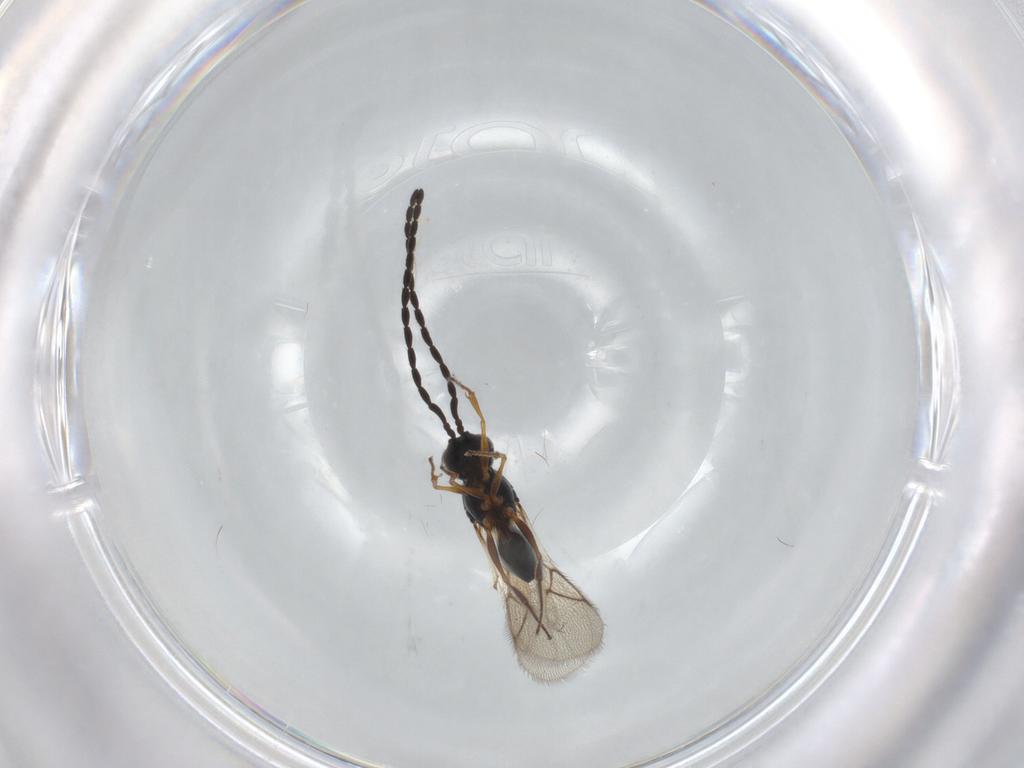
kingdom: Animalia
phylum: Arthropoda
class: Insecta
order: Hymenoptera
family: Figitidae
